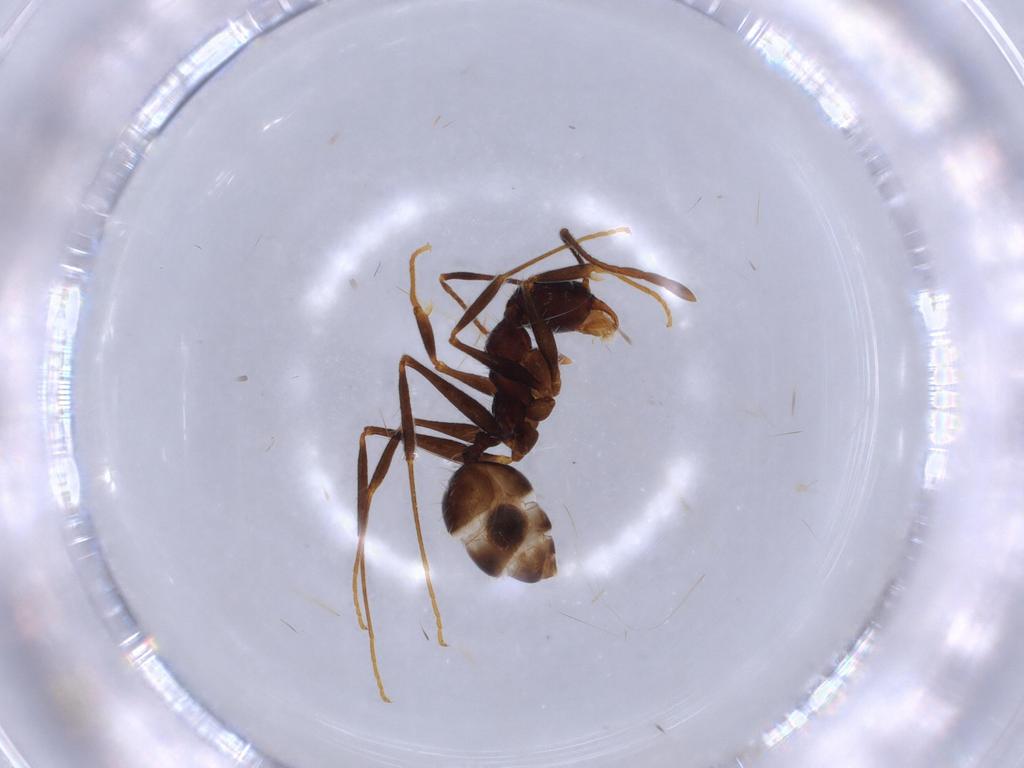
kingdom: Animalia
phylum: Arthropoda
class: Insecta
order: Hymenoptera
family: Formicidae
